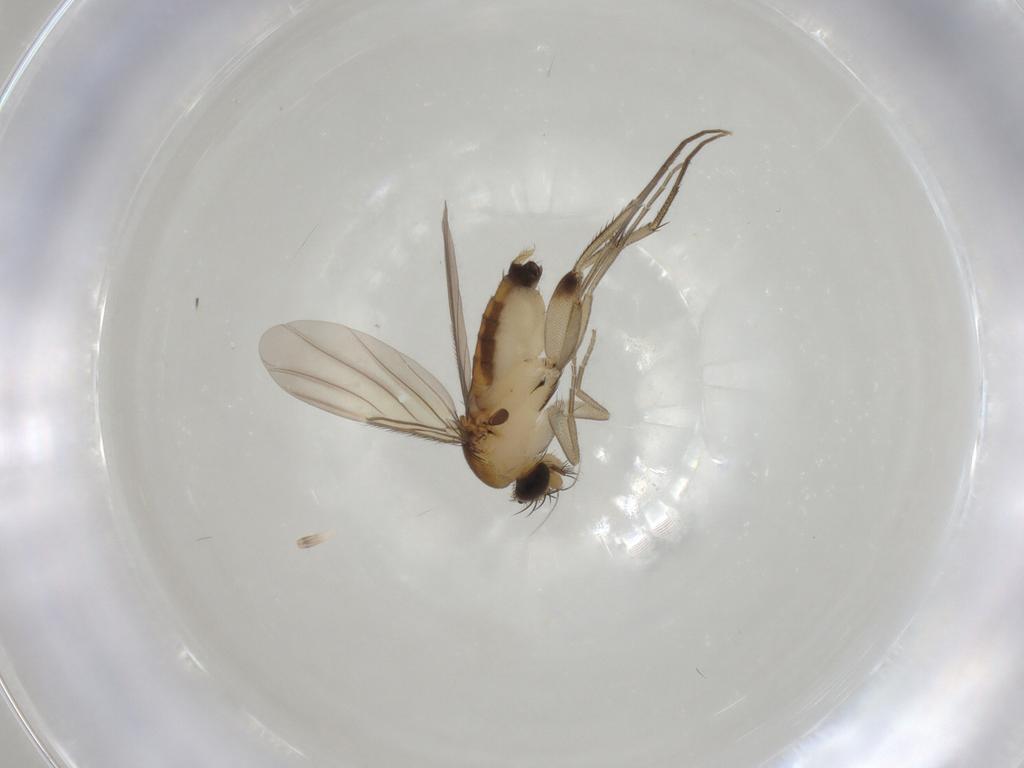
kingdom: Animalia
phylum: Arthropoda
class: Insecta
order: Diptera
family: Phoridae
